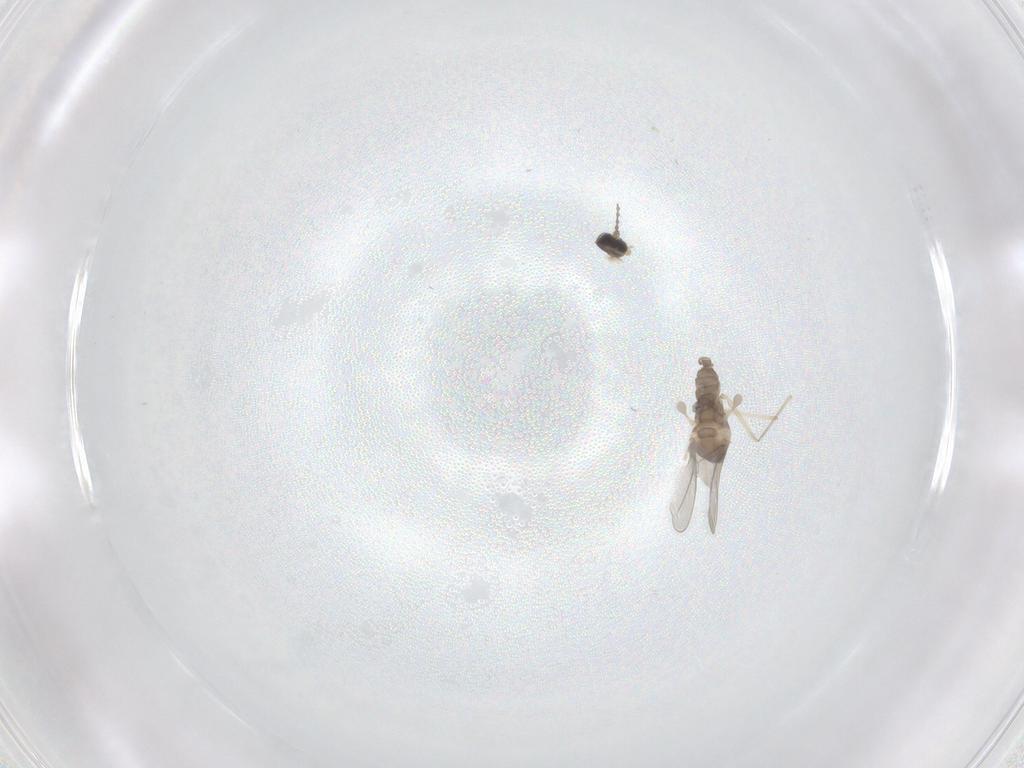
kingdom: Animalia
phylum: Arthropoda
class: Insecta
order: Diptera
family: Cecidomyiidae
